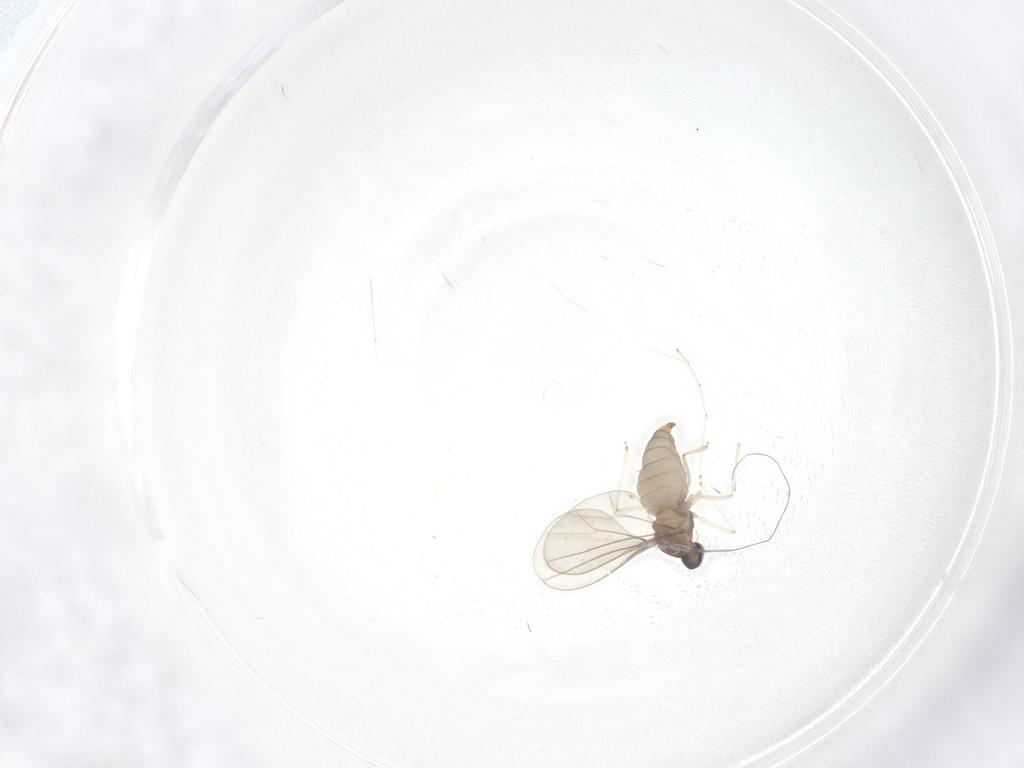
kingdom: Animalia
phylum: Arthropoda
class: Insecta
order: Diptera
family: Cecidomyiidae
